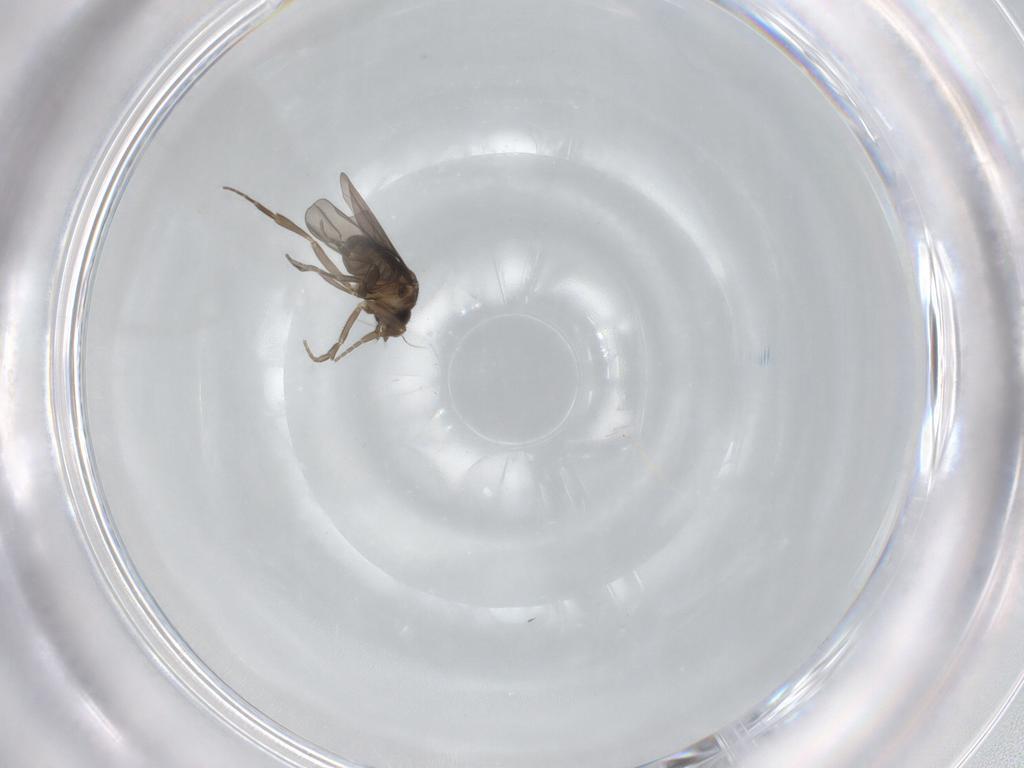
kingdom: Animalia
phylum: Arthropoda
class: Insecta
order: Diptera
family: Phoridae
